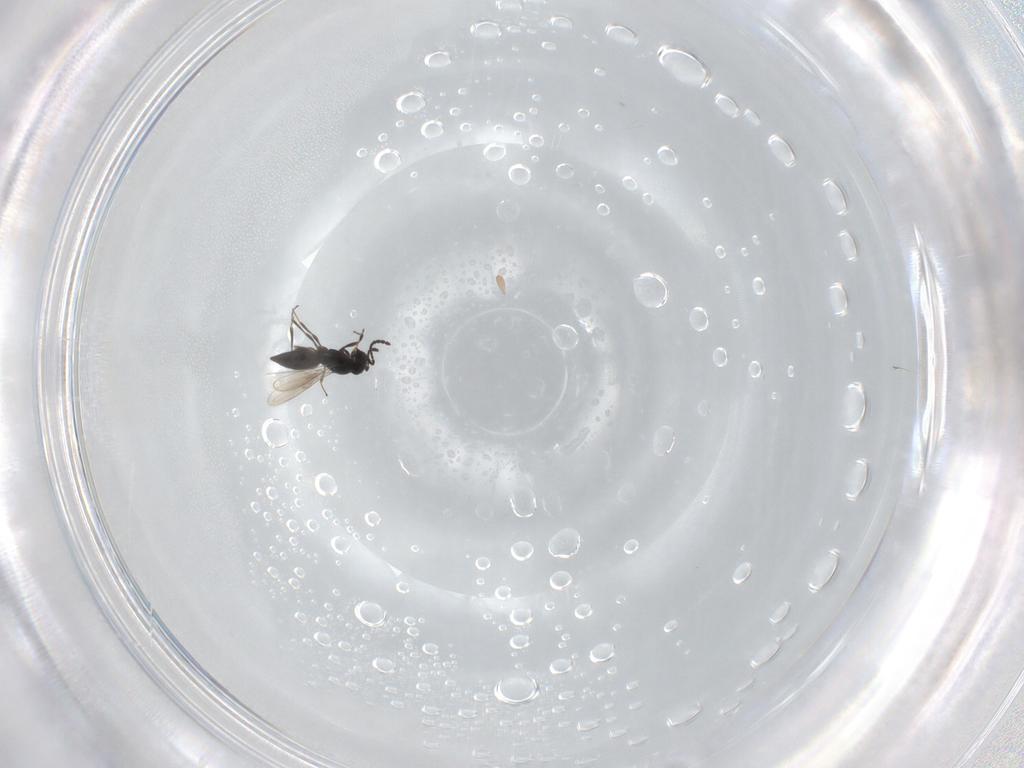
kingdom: Animalia
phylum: Arthropoda
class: Insecta
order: Hymenoptera
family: Scelionidae
